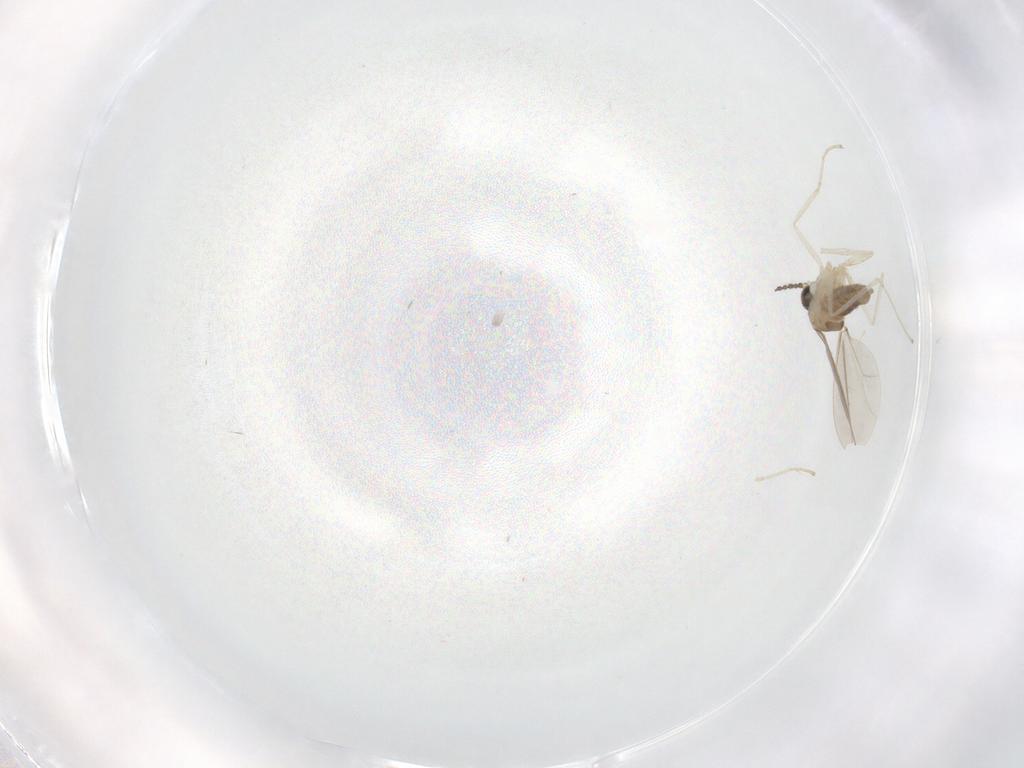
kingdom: Animalia
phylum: Arthropoda
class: Insecta
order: Diptera
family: Cecidomyiidae
